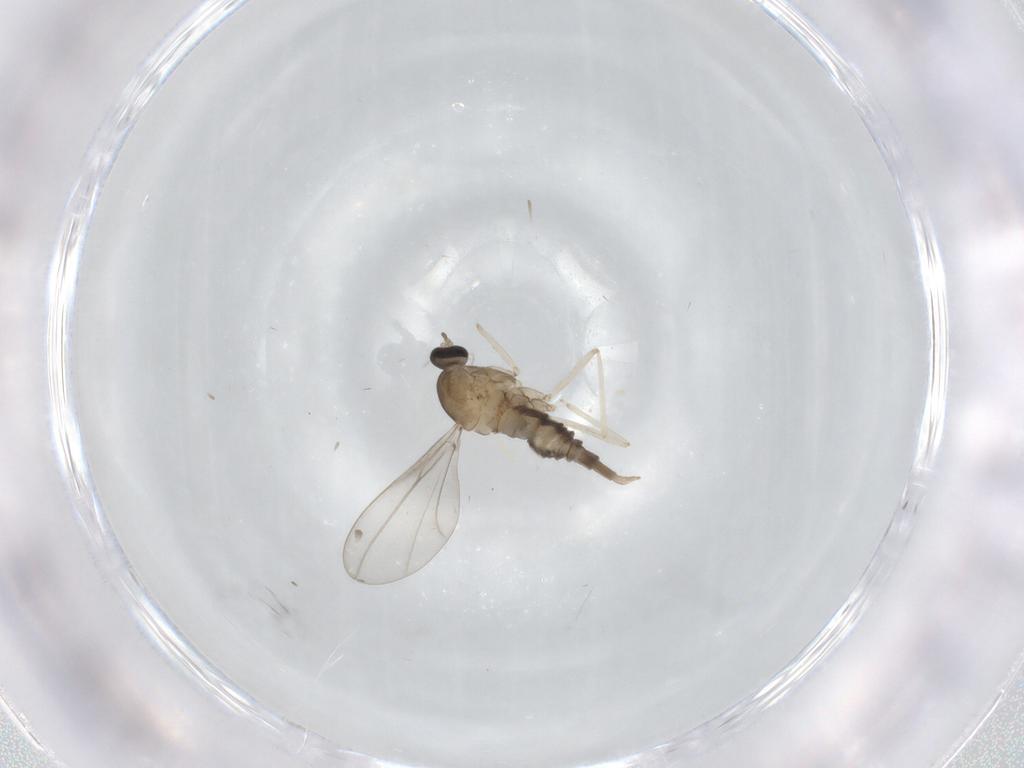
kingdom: Animalia
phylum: Arthropoda
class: Insecta
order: Diptera
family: Cecidomyiidae
